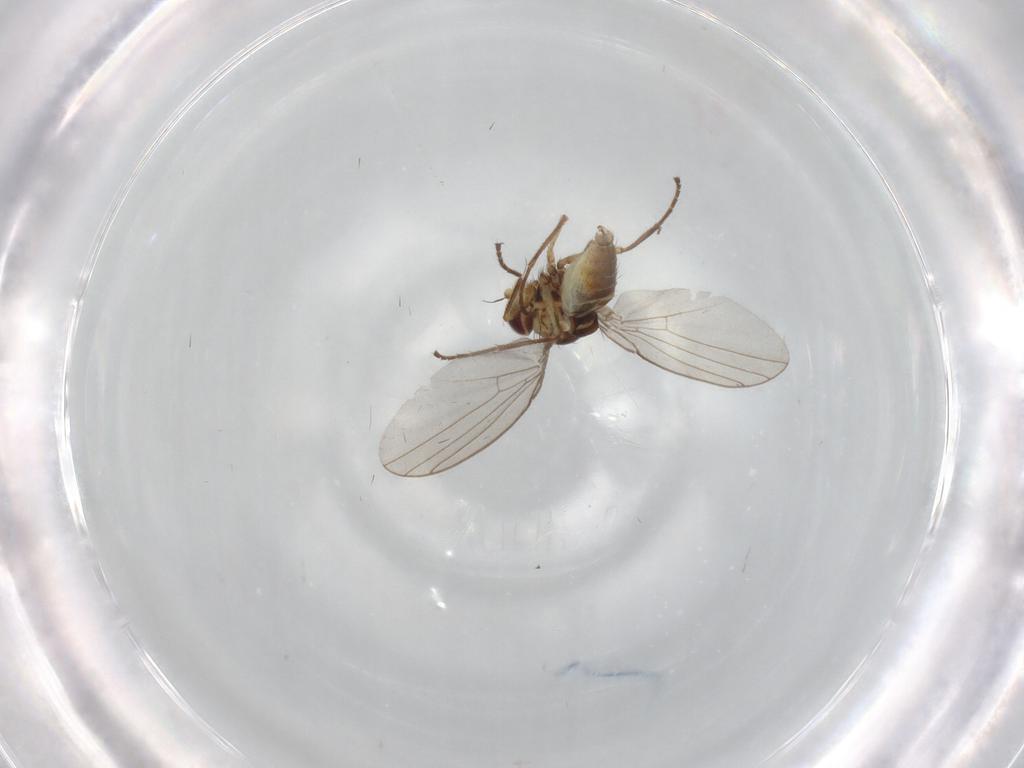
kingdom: Animalia
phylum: Arthropoda
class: Insecta
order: Diptera
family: Agromyzidae
